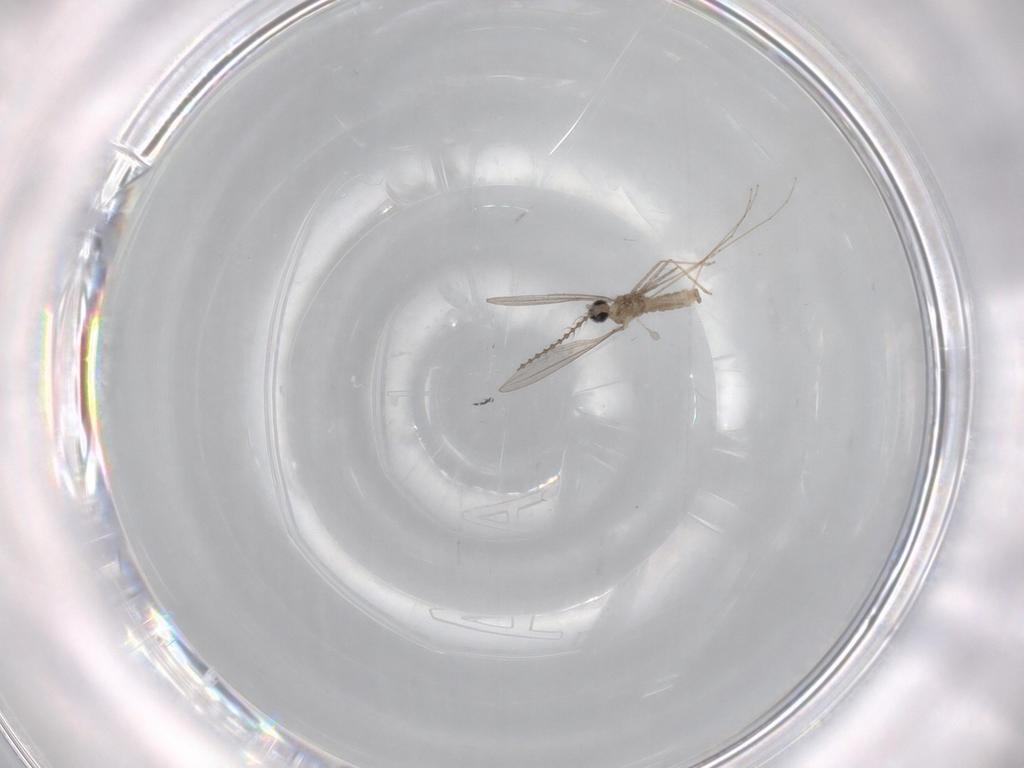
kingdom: Animalia
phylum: Arthropoda
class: Insecta
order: Diptera
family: Cecidomyiidae
